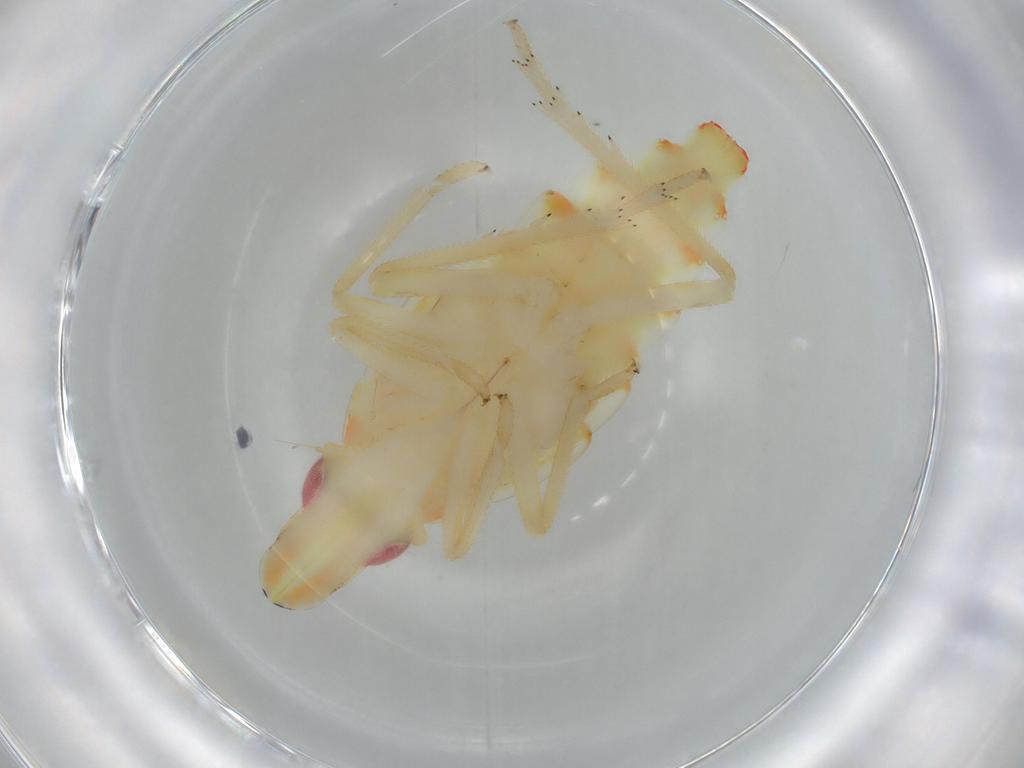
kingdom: Animalia
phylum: Arthropoda
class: Insecta
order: Hemiptera
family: Tropiduchidae
